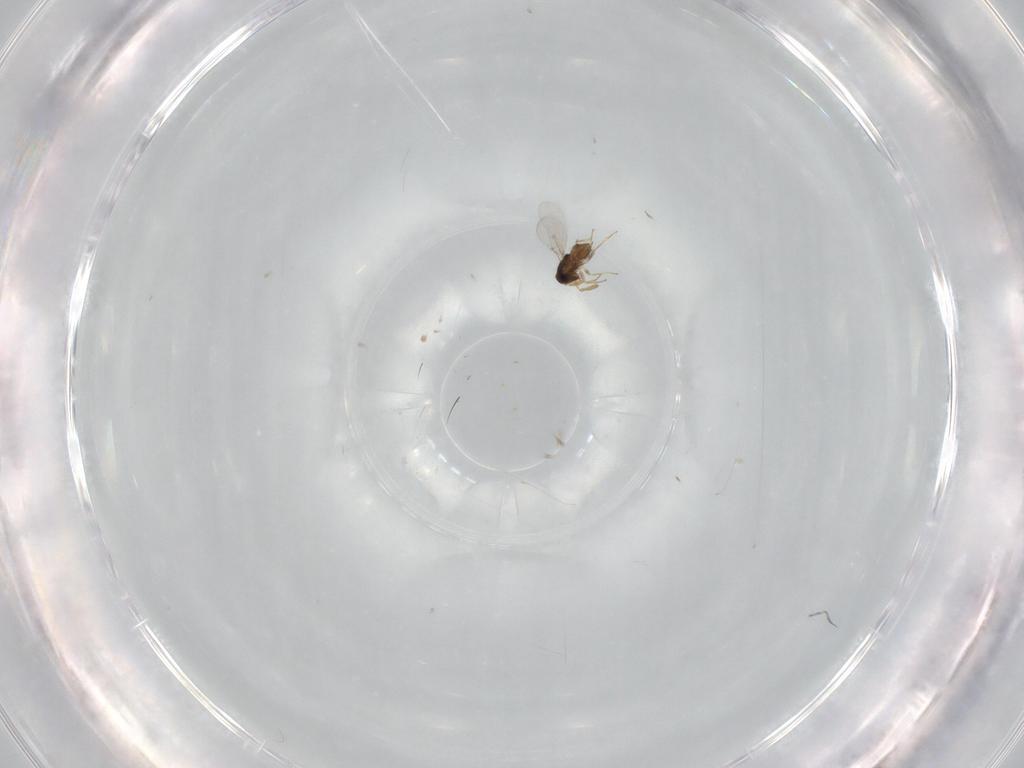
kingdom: Animalia
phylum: Arthropoda
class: Insecta
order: Hymenoptera
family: Encyrtidae
